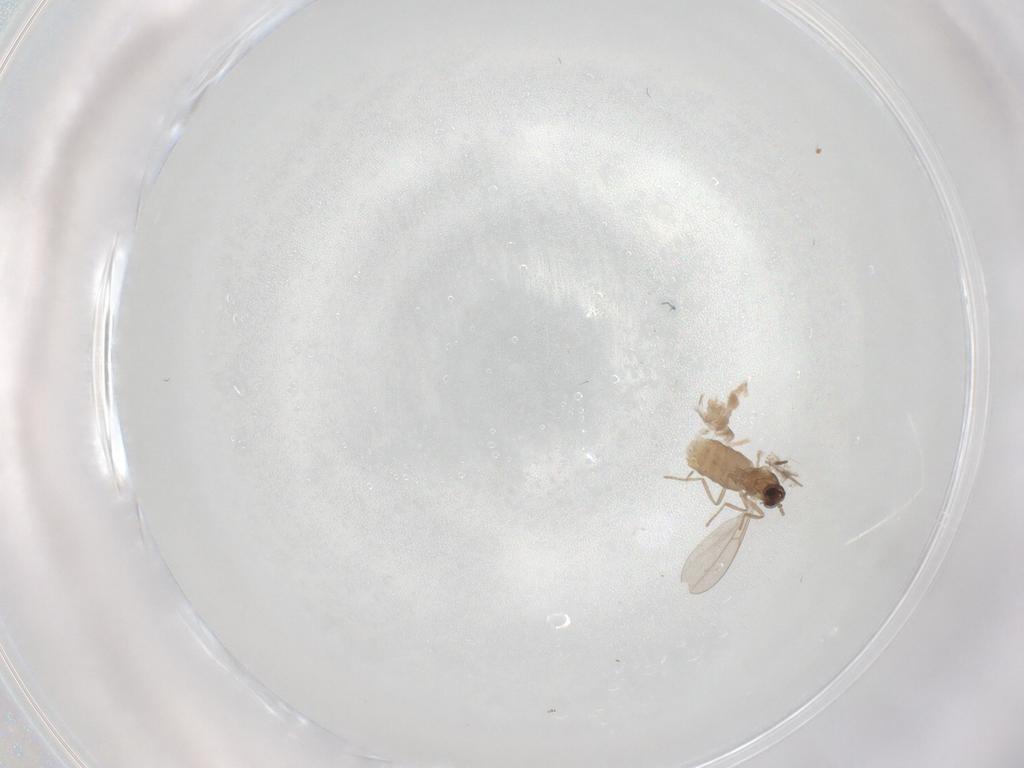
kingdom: Animalia
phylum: Arthropoda
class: Insecta
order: Diptera
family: Cecidomyiidae
